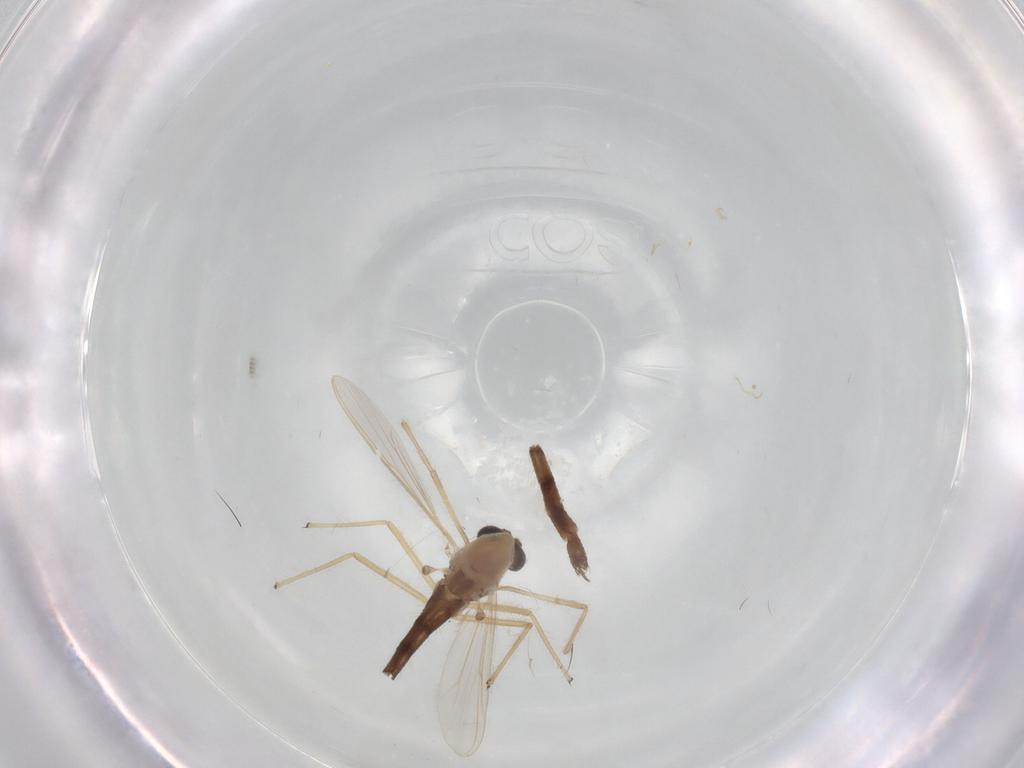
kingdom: Animalia
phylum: Arthropoda
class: Insecta
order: Diptera
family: Chironomidae
